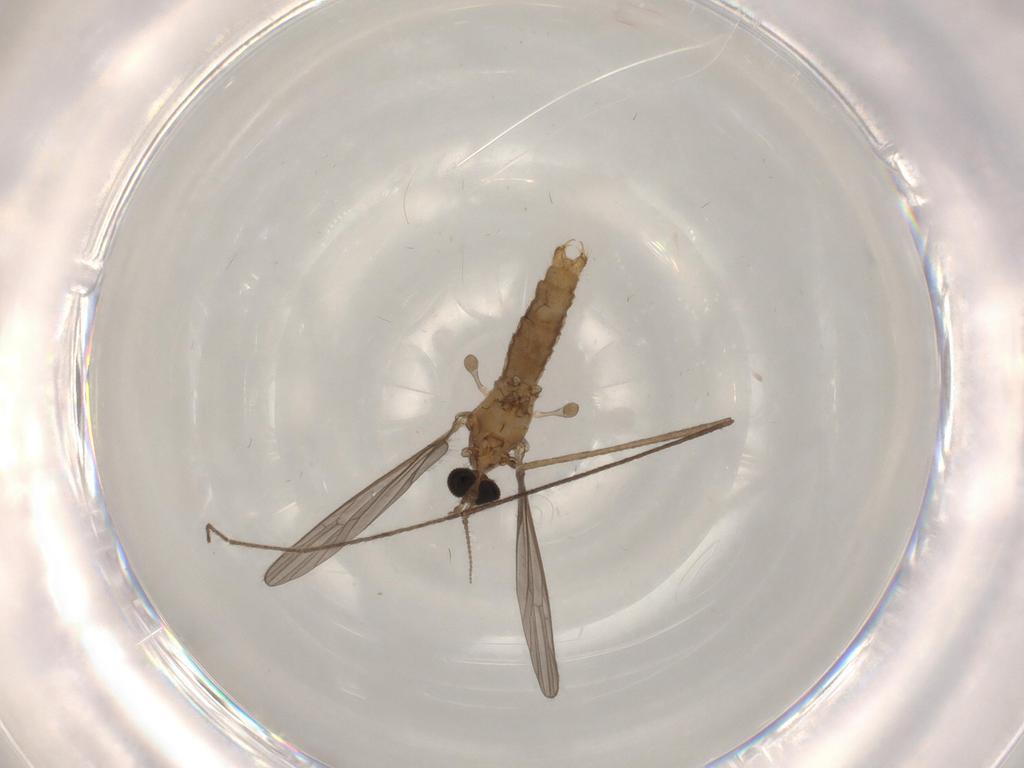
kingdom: Animalia
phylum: Arthropoda
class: Insecta
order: Diptera
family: Limoniidae
